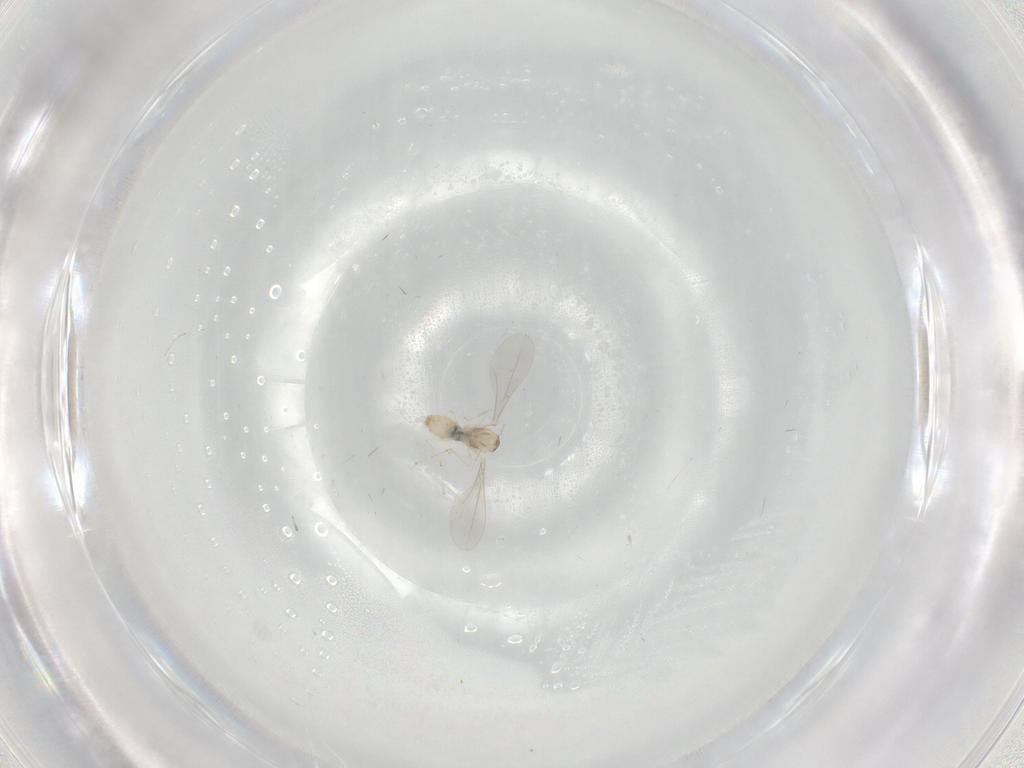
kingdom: Animalia
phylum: Arthropoda
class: Insecta
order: Diptera
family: Cecidomyiidae
